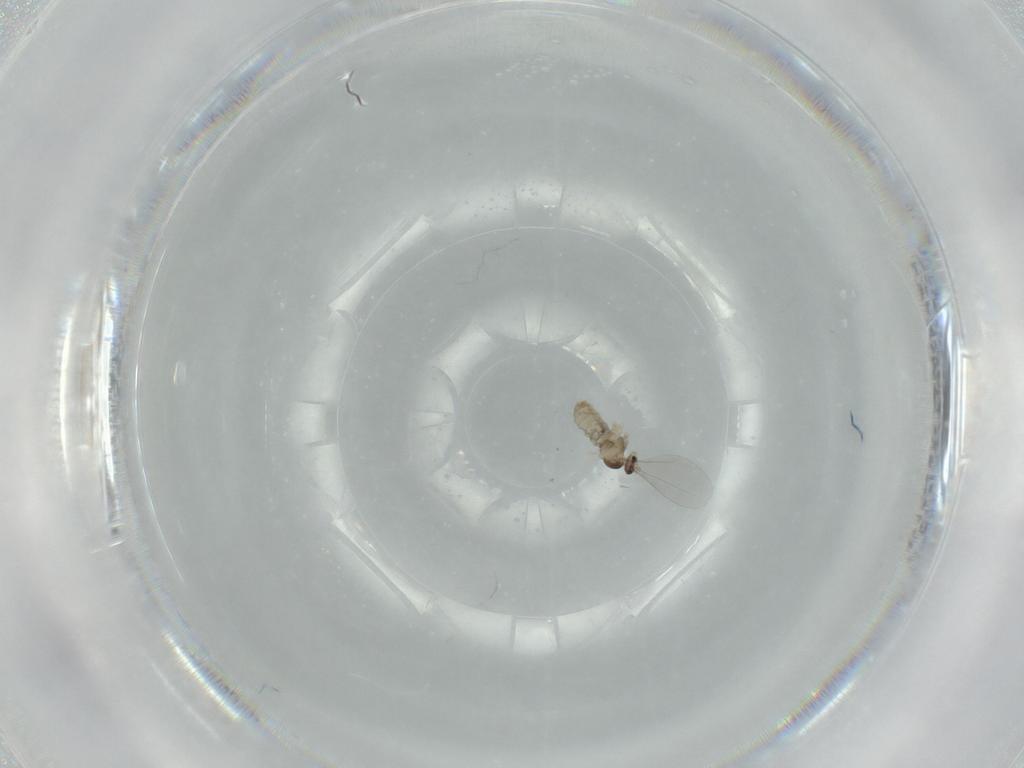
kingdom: Animalia
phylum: Arthropoda
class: Insecta
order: Diptera
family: Cecidomyiidae
